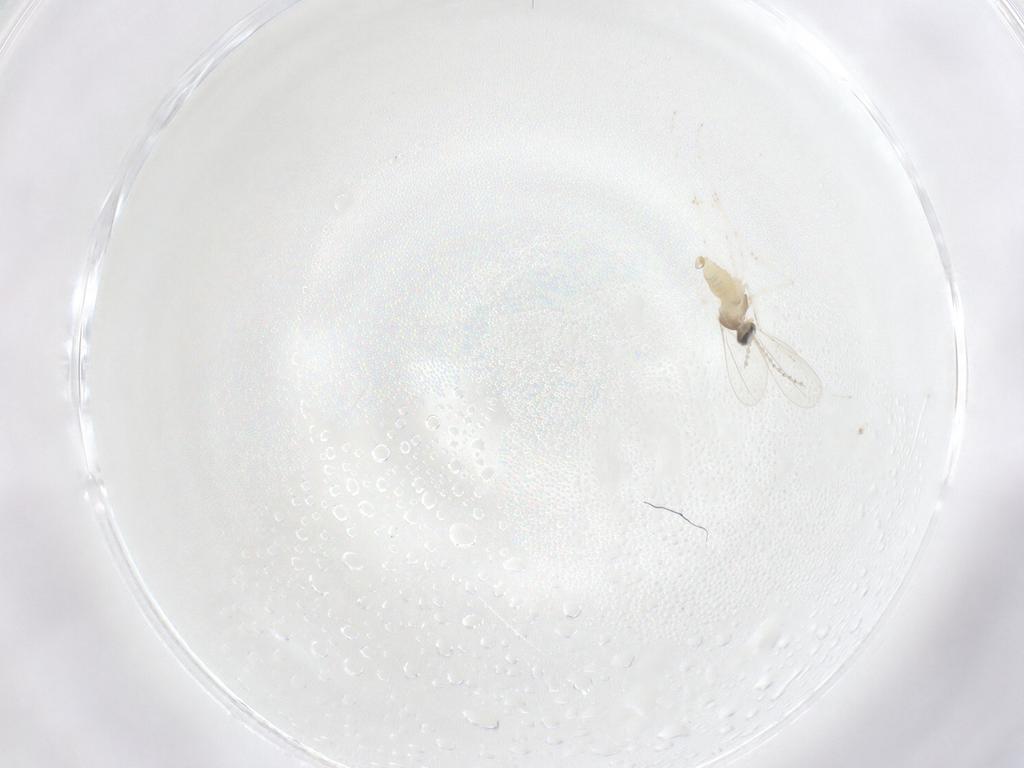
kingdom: Animalia
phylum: Arthropoda
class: Insecta
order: Diptera
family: Ceratopogonidae
